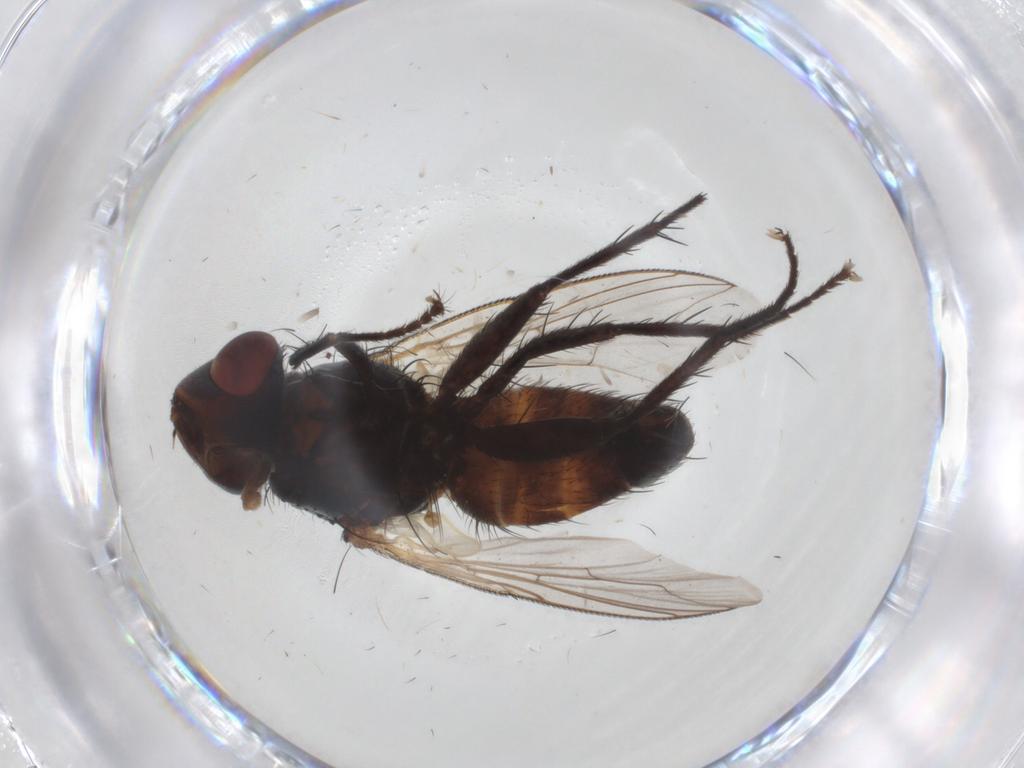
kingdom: Animalia
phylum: Arthropoda
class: Insecta
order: Diptera
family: Sarcophagidae
